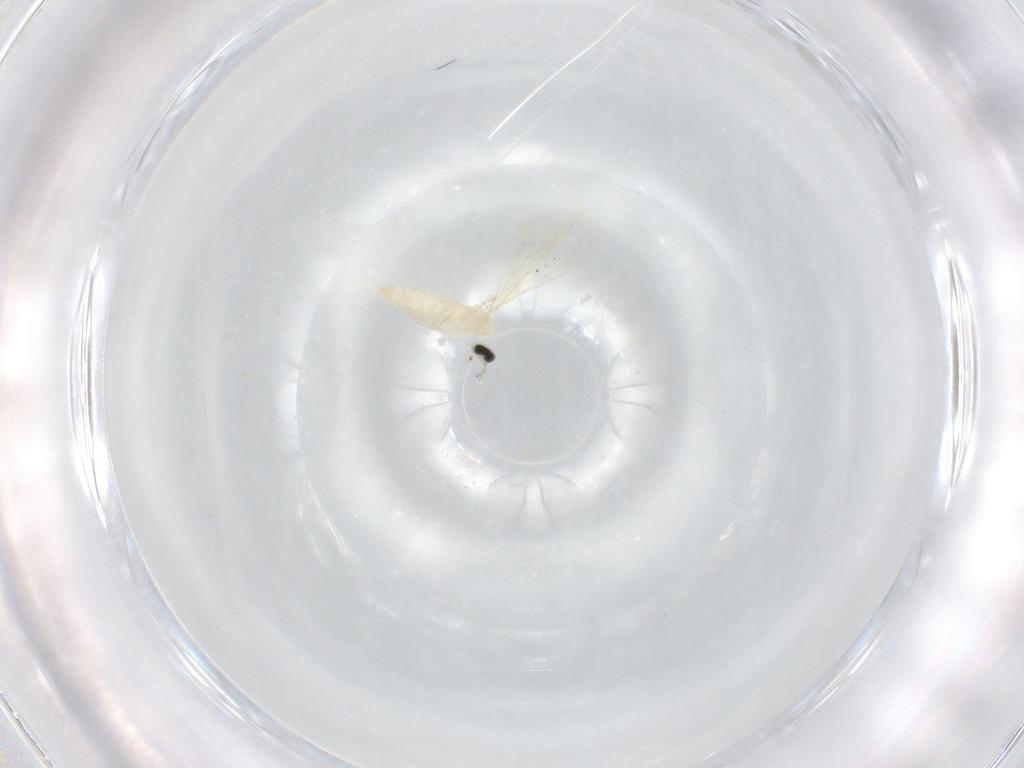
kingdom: Animalia
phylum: Arthropoda
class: Insecta
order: Diptera
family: Cecidomyiidae
